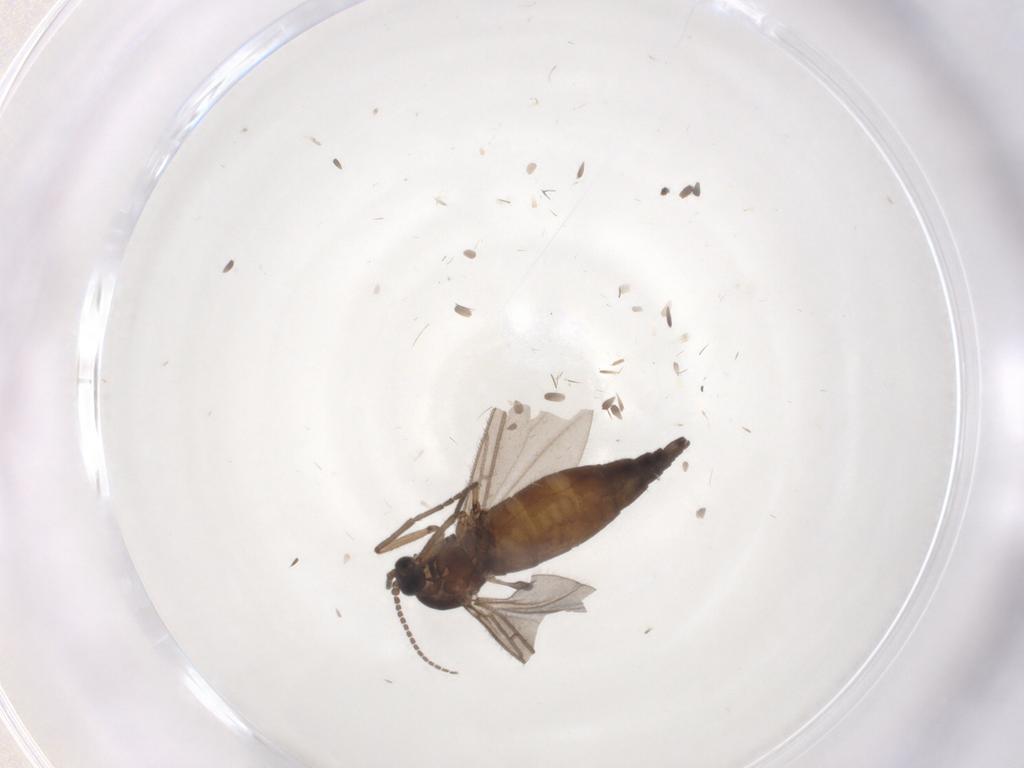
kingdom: Animalia
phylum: Arthropoda
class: Insecta
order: Diptera
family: Sciaridae
